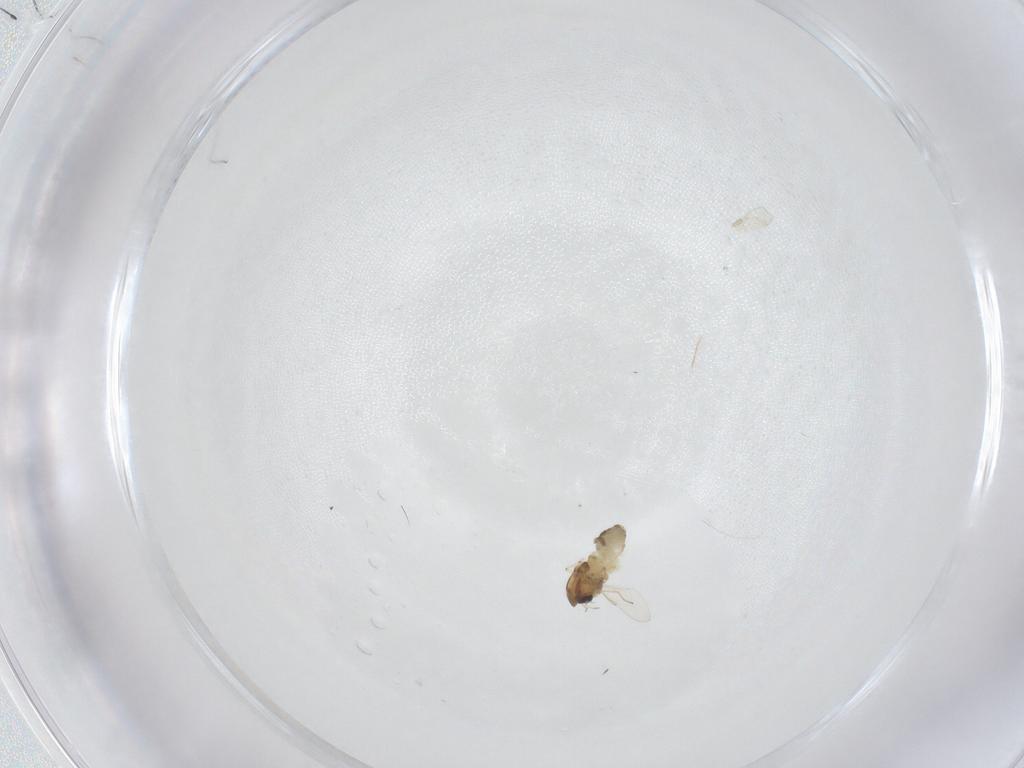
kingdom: Animalia
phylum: Arthropoda
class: Insecta
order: Diptera
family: Chironomidae
